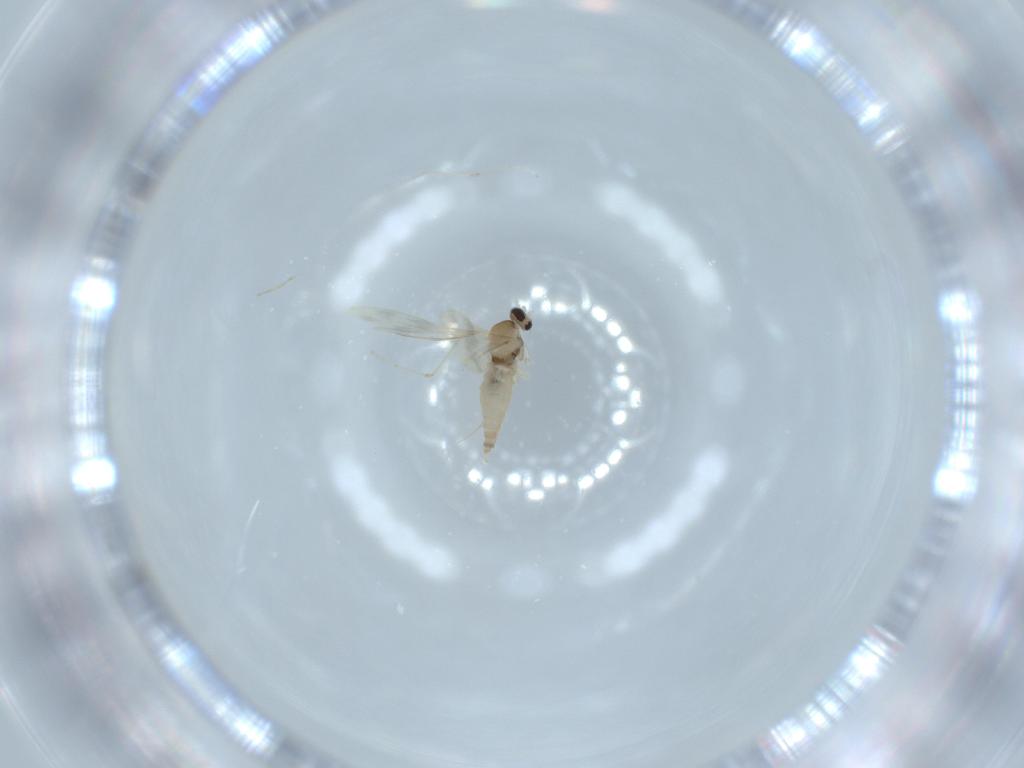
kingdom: Animalia
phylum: Arthropoda
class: Insecta
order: Diptera
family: Cecidomyiidae
